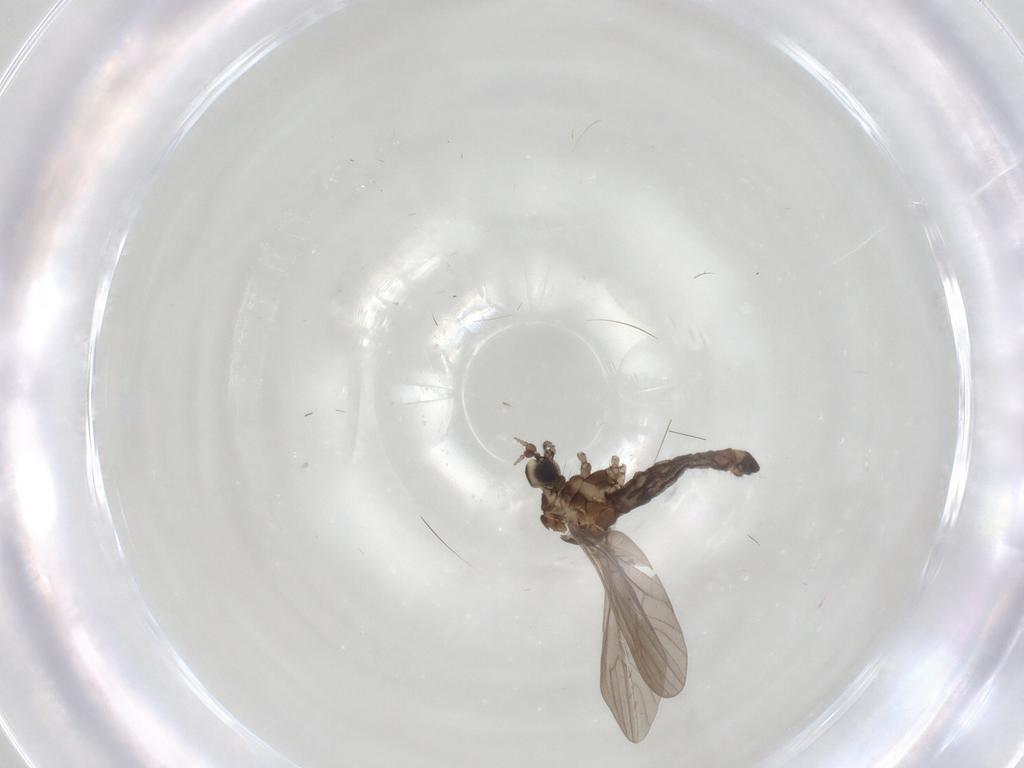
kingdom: Animalia
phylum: Arthropoda
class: Insecta
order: Diptera
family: Limoniidae
